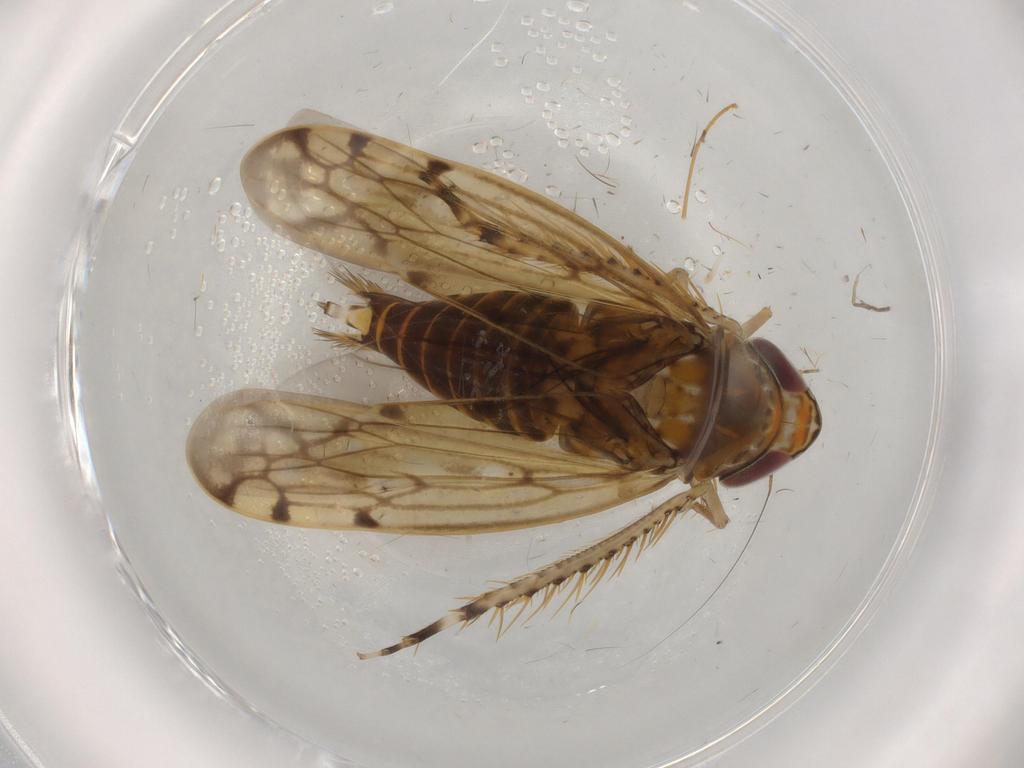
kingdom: Animalia
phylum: Arthropoda
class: Insecta
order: Hemiptera
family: Cicadellidae
